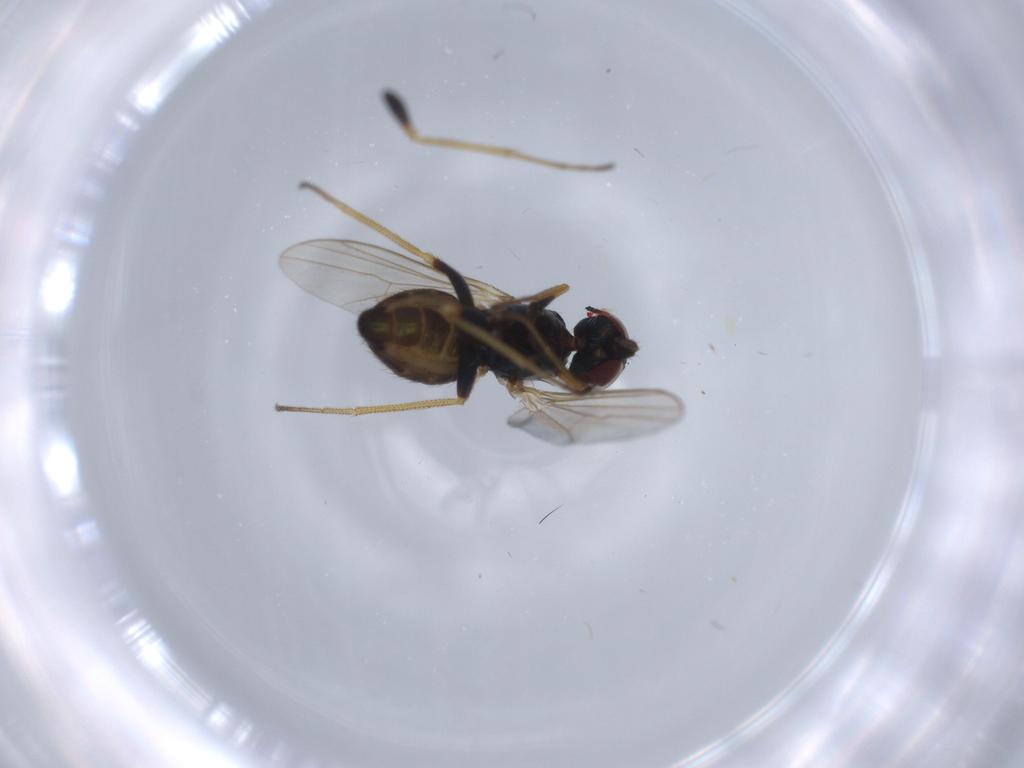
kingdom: Animalia
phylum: Arthropoda
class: Insecta
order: Diptera
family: Dolichopodidae
